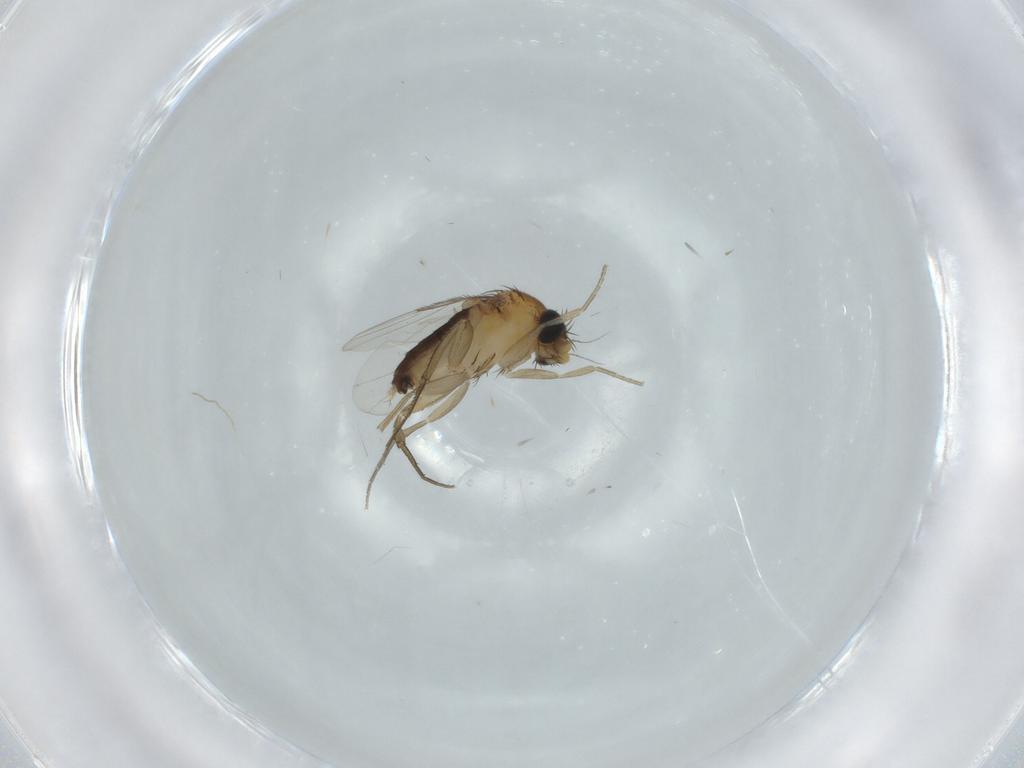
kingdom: Animalia
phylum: Arthropoda
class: Insecta
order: Diptera
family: Phoridae
